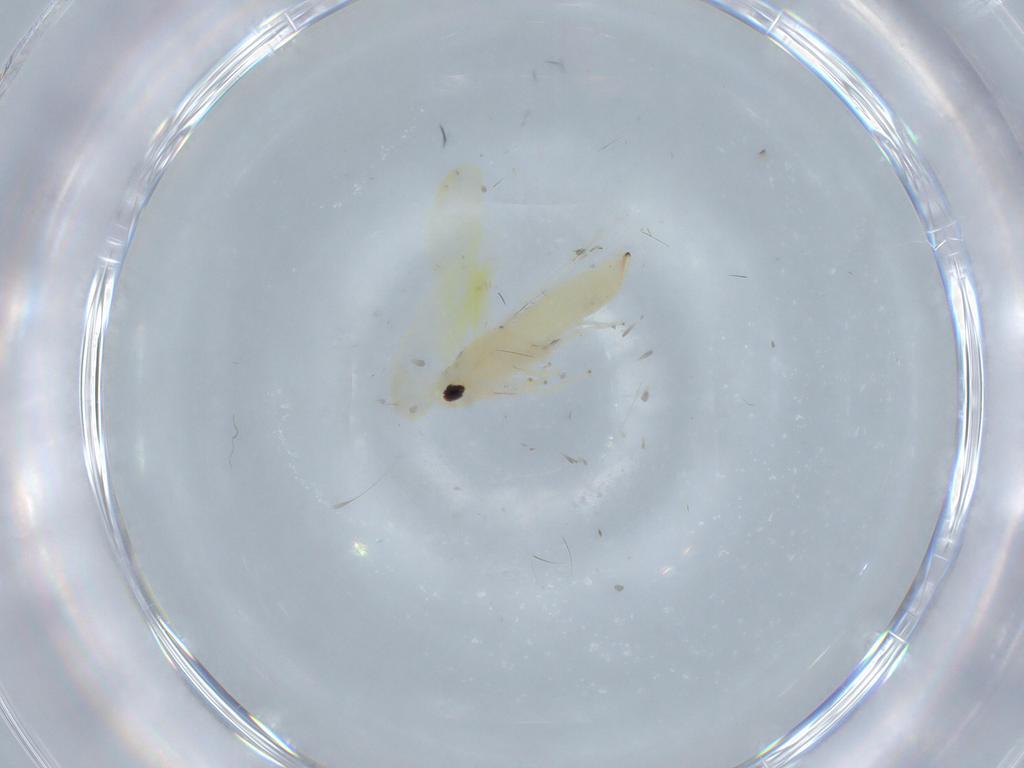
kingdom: Animalia
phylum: Arthropoda
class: Insecta
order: Hemiptera
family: Cicadellidae
